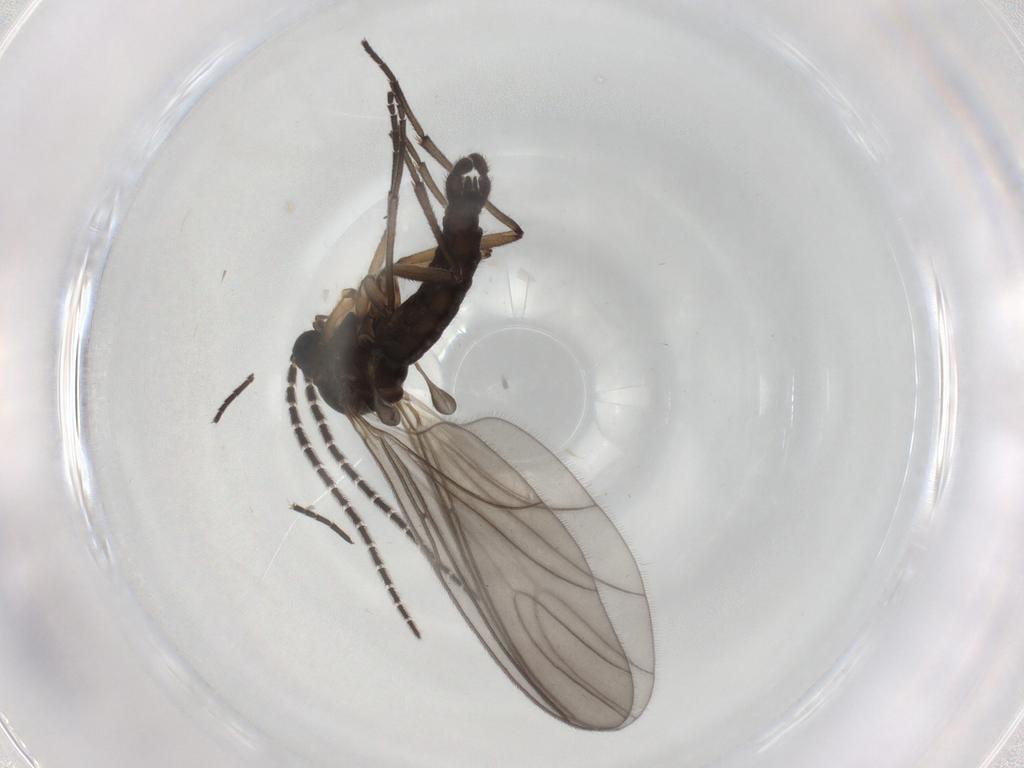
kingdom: Animalia
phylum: Arthropoda
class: Insecta
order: Diptera
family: Sciaridae
